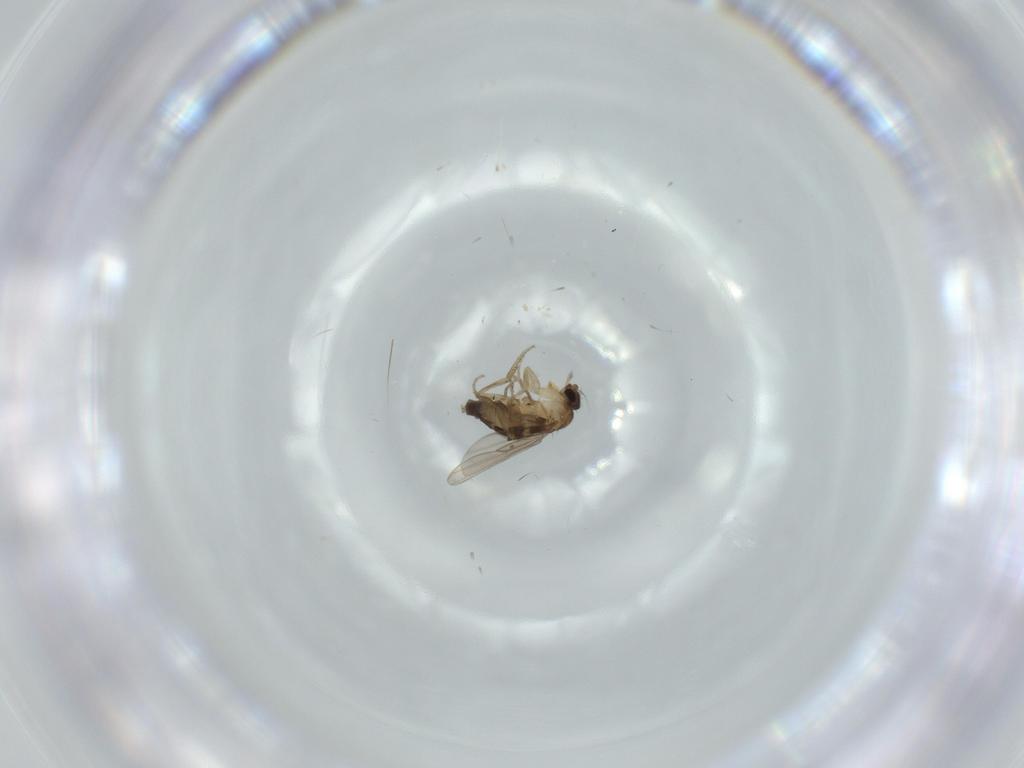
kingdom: Animalia
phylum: Arthropoda
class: Insecta
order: Diptera
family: Phoridae
